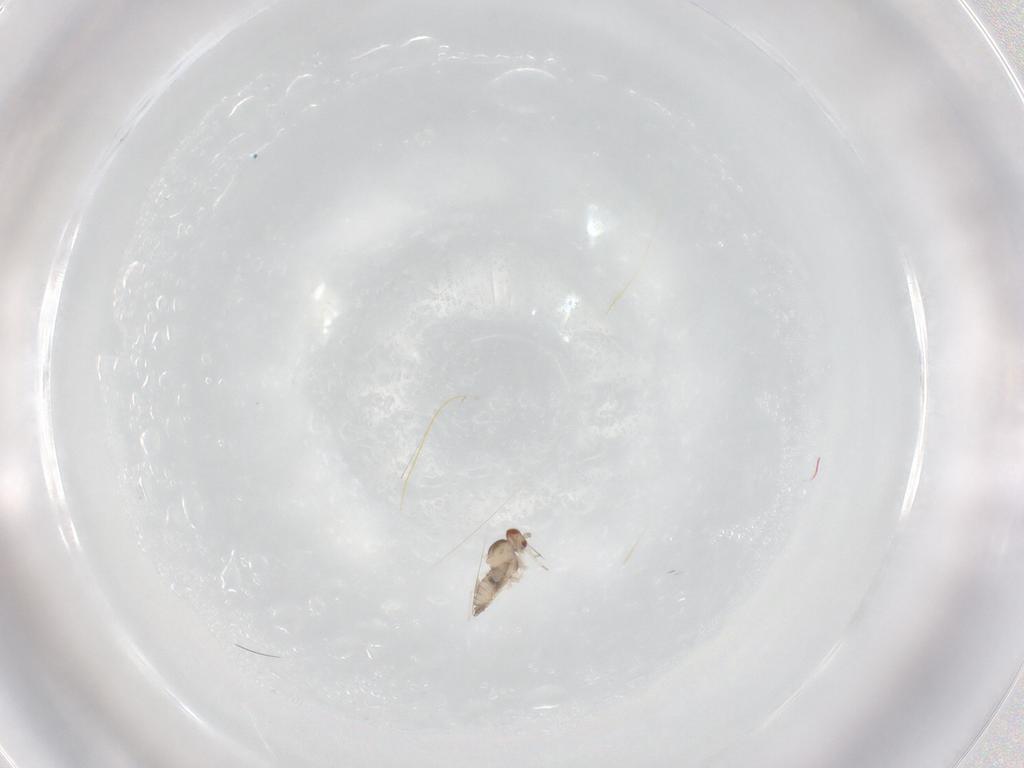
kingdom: Animalia
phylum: Arthropoda
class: Insecta
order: Diptera
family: Cecidomyiidae
